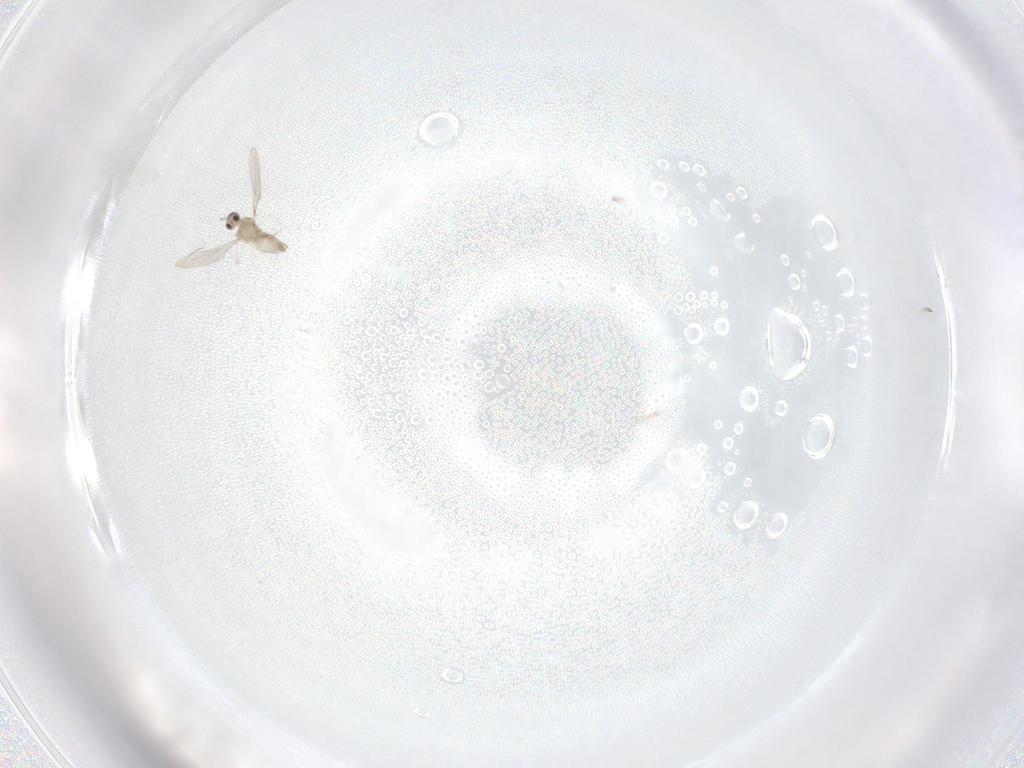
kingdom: Animalia
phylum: Arthropoda
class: Insecta
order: Diptera
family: Cecidomyiidae
